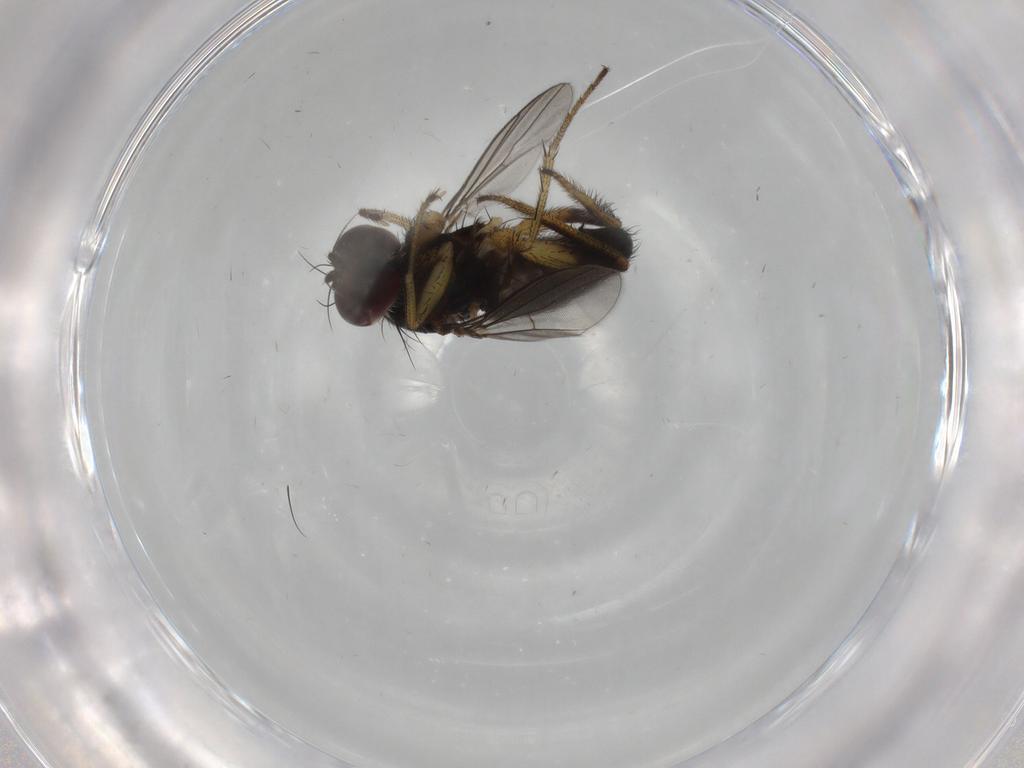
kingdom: Animalia
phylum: Arthropoda
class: Insecta
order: Diptera
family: Dolichopodidae
